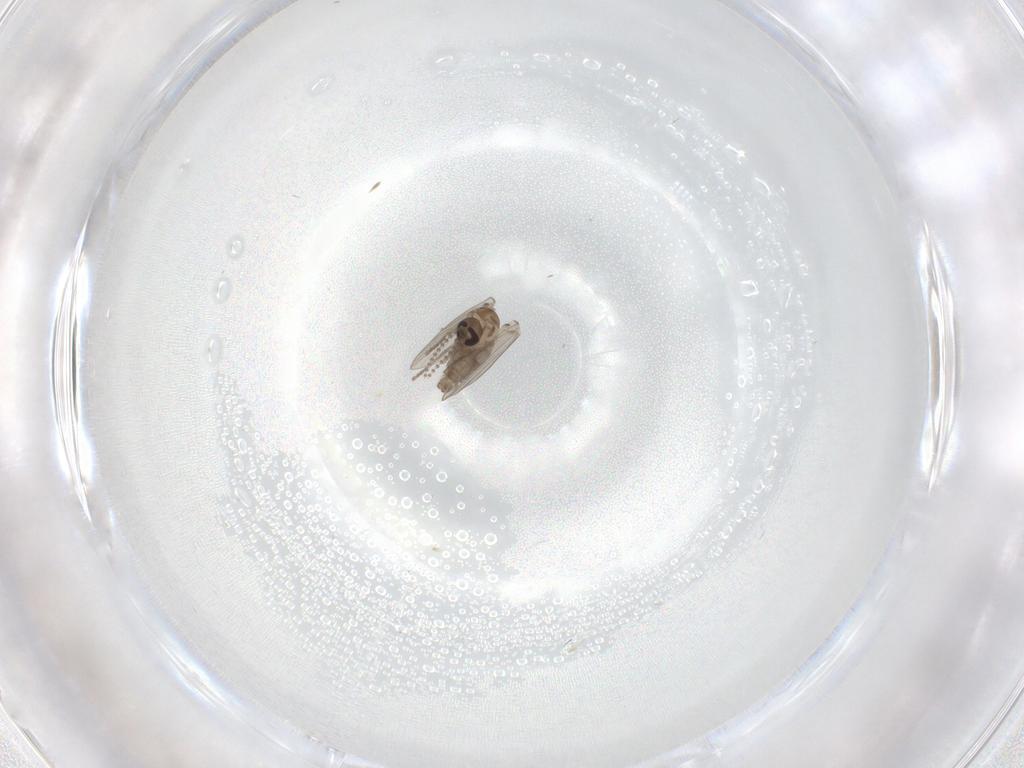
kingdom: Animalia
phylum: Arthropoda
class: Insecta
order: Diptera
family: Psychodidae
